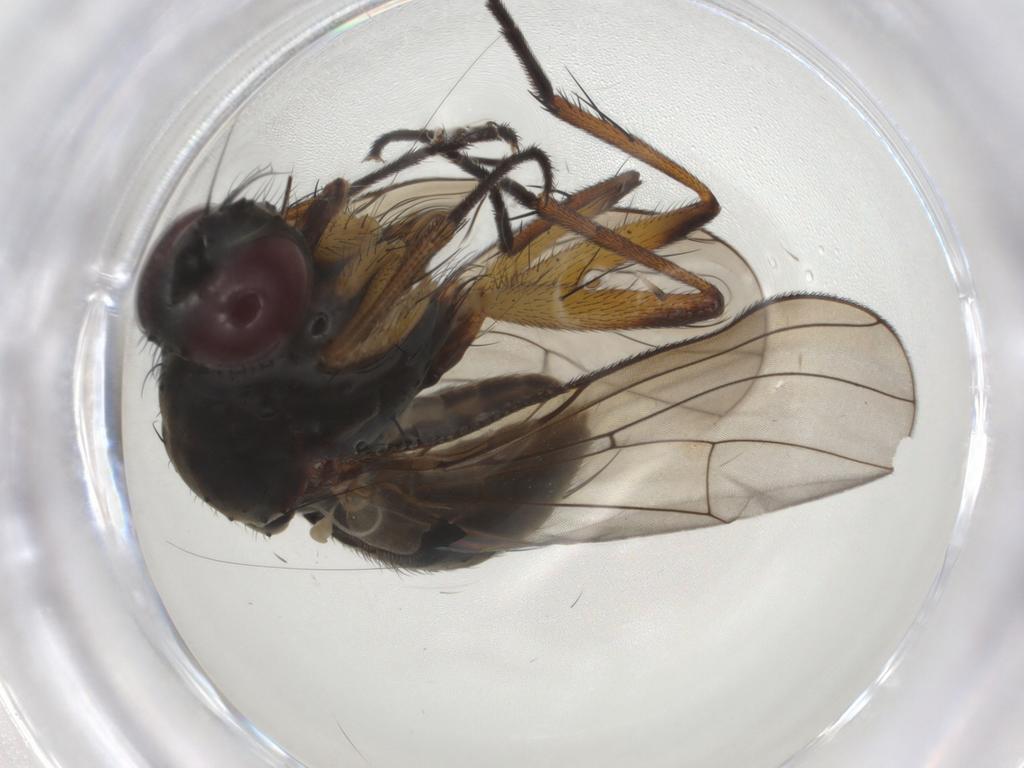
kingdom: Animalia
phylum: Arthropoda
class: Insecta
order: Diptera
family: Muscidae
